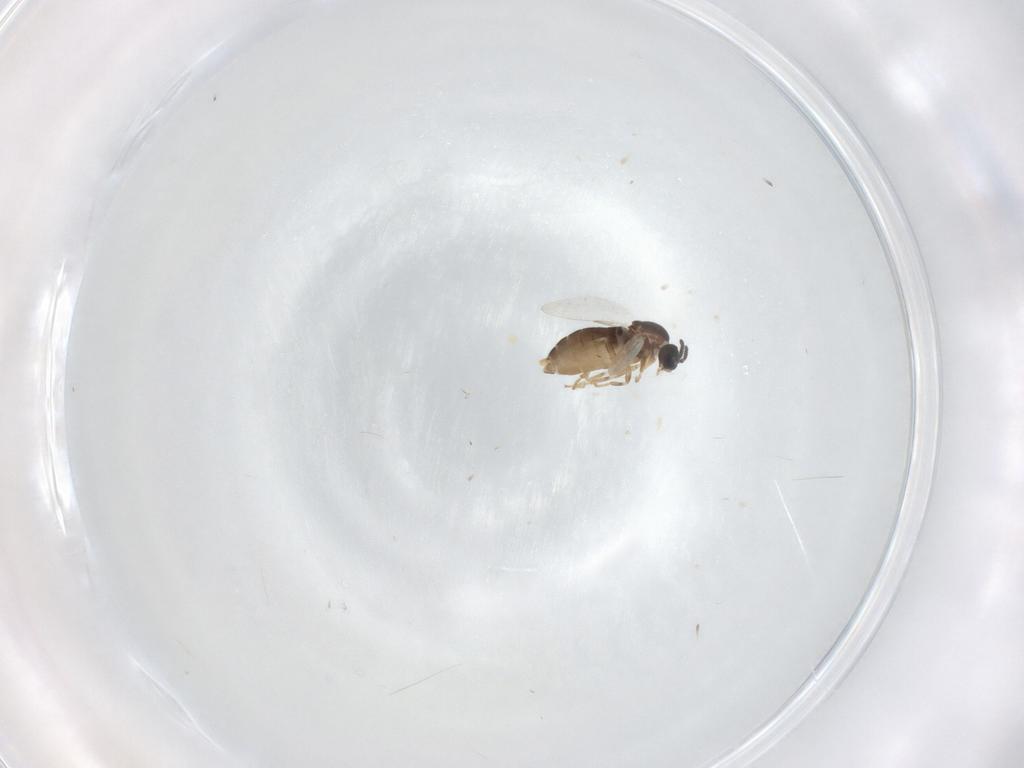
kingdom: Animalia
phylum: Arthropoda
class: Insecta
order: Diptera
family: Scatopsidae
